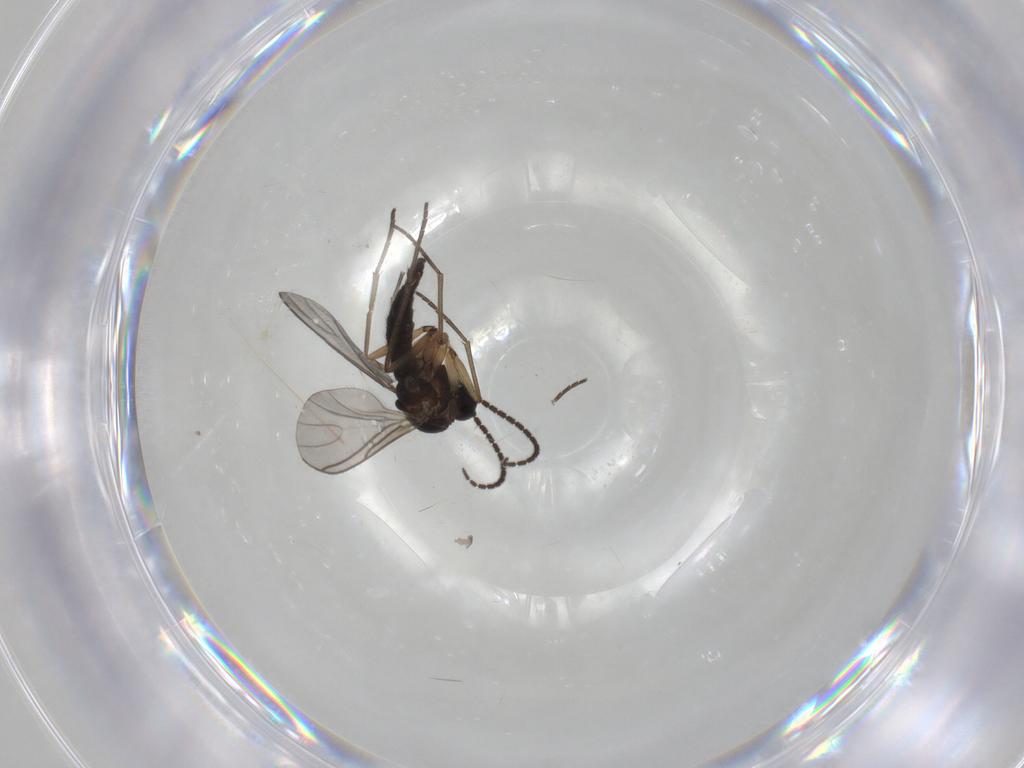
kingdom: Animalia
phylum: Arthropoda
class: Insecta
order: Diptera
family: Sciaridae
